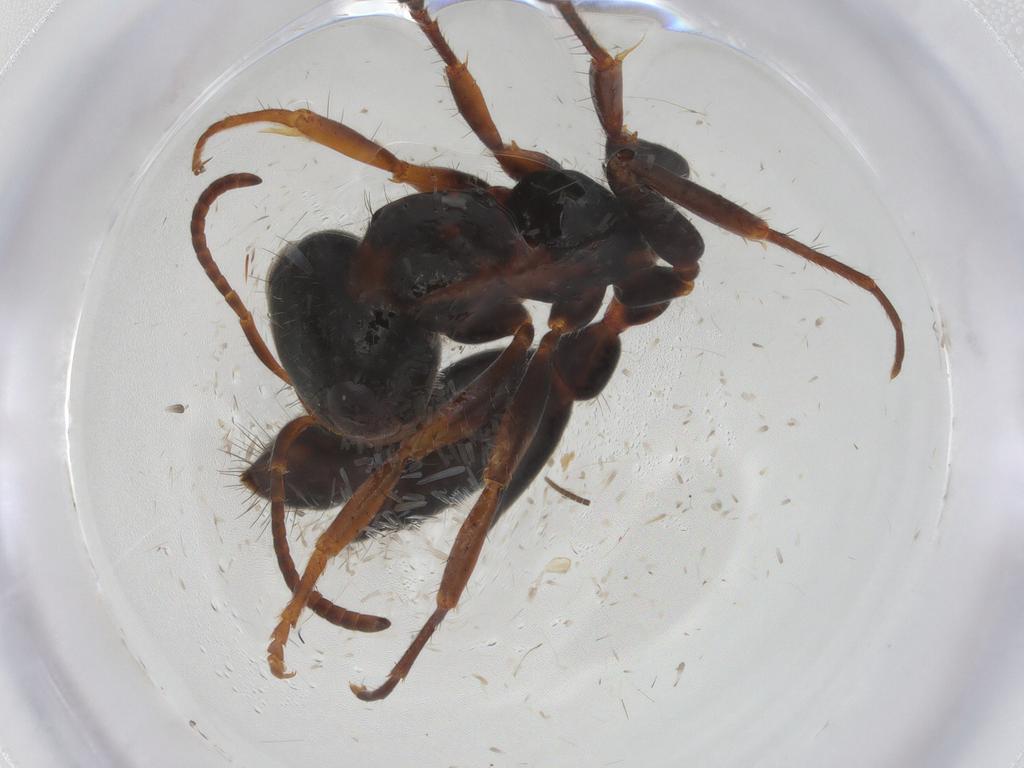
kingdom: Animalia
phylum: Arthropoda
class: Insecta
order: Hymenoptera
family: Formicidae
